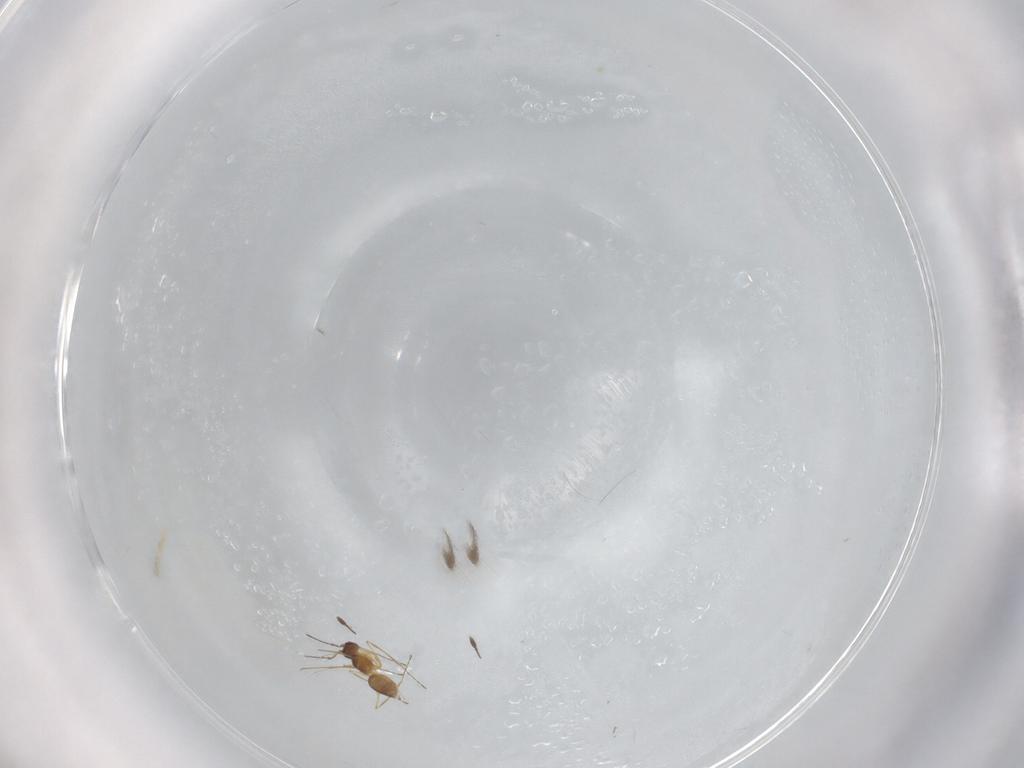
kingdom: Animalia
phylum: Arthropoda
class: Insecta
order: Hymenoptera
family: Mymaridae
